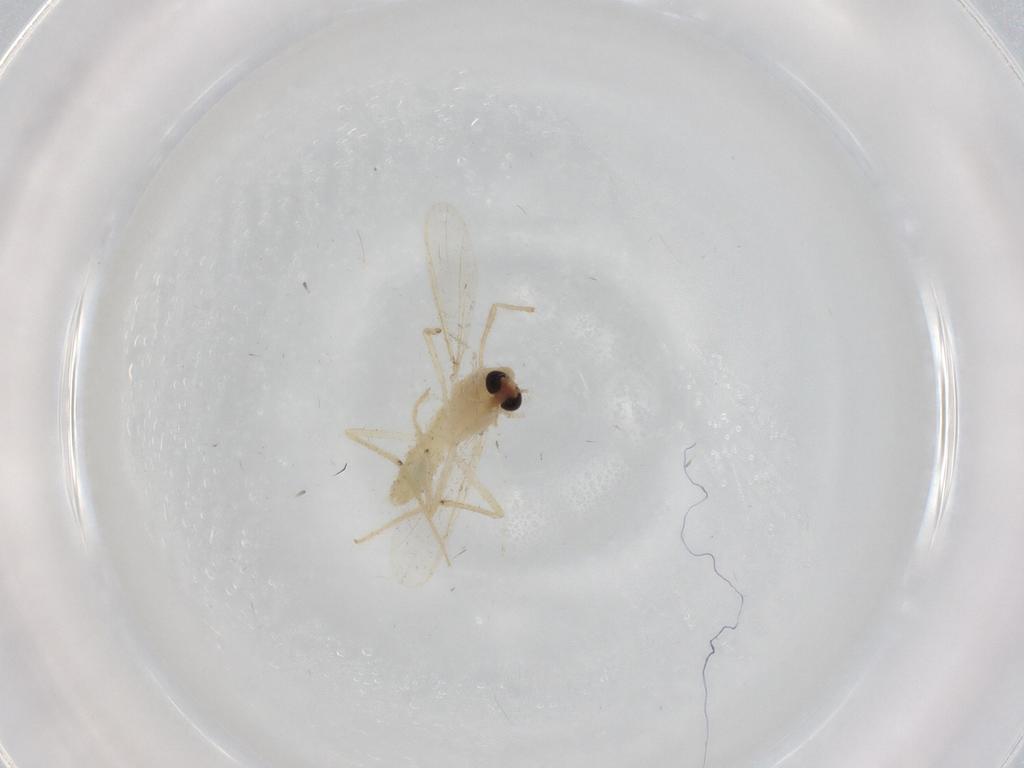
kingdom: Animalia
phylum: Arthropoda
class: Insecta
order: Diptera
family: Chironomidae
